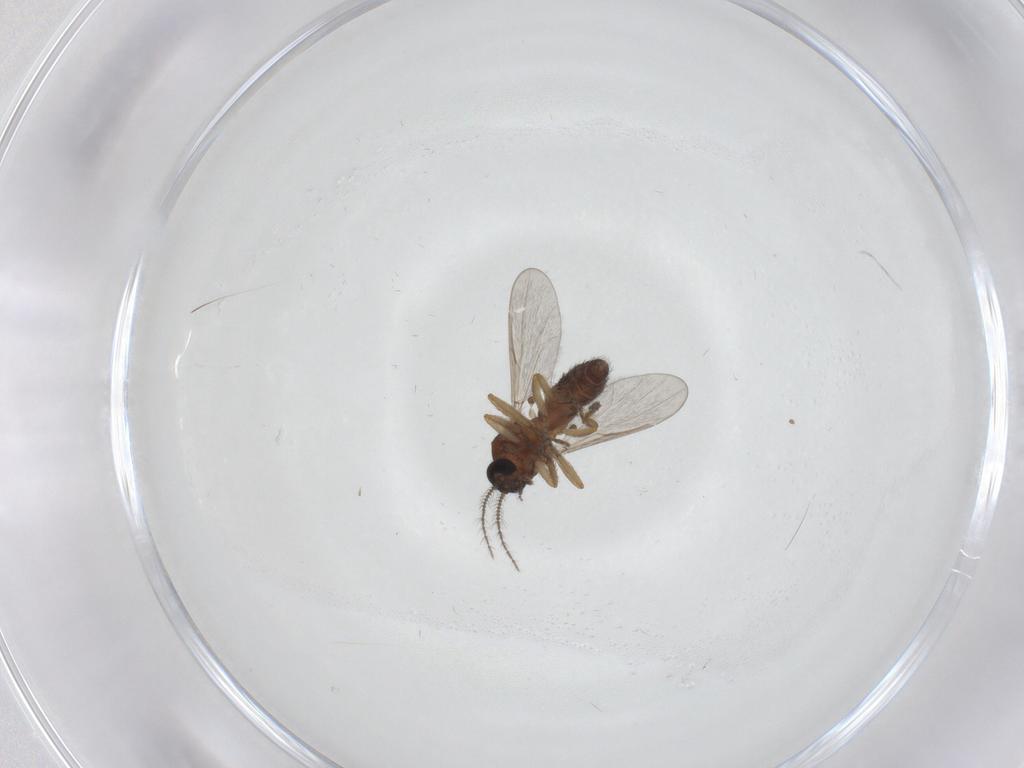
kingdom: Animalia
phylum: Arthropoda
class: Insecta
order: Diptera
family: Ceratopogonidae
